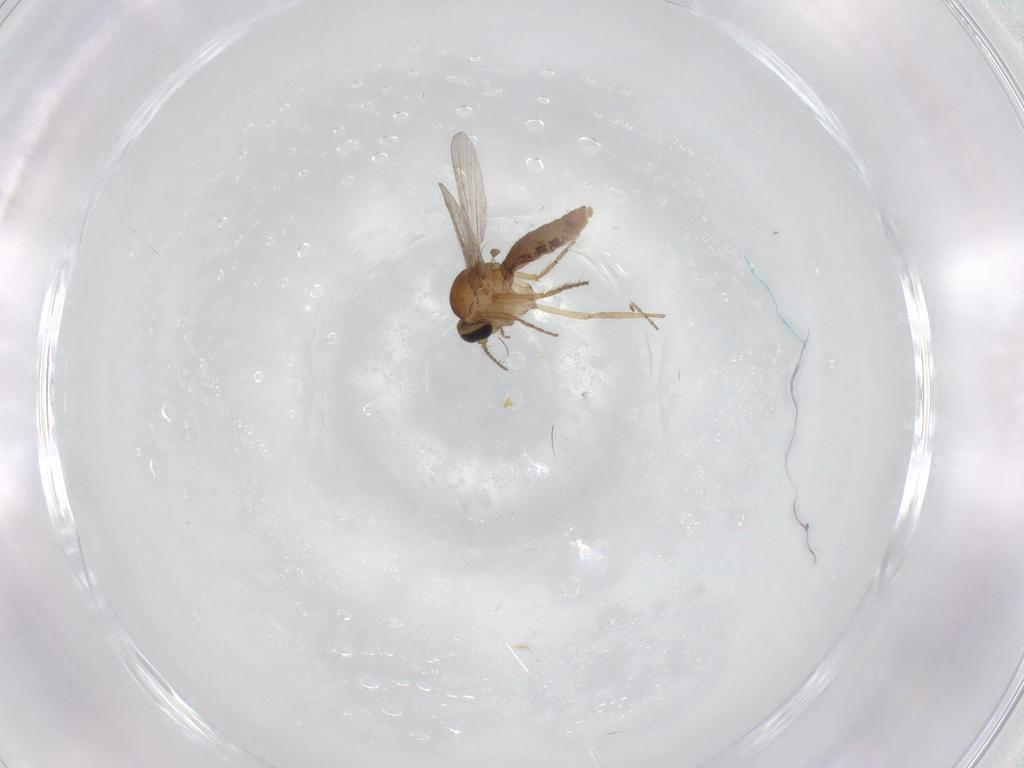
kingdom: Animalia
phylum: Arthropoda
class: Insecta
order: Diptera
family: Ceratopogonidae
